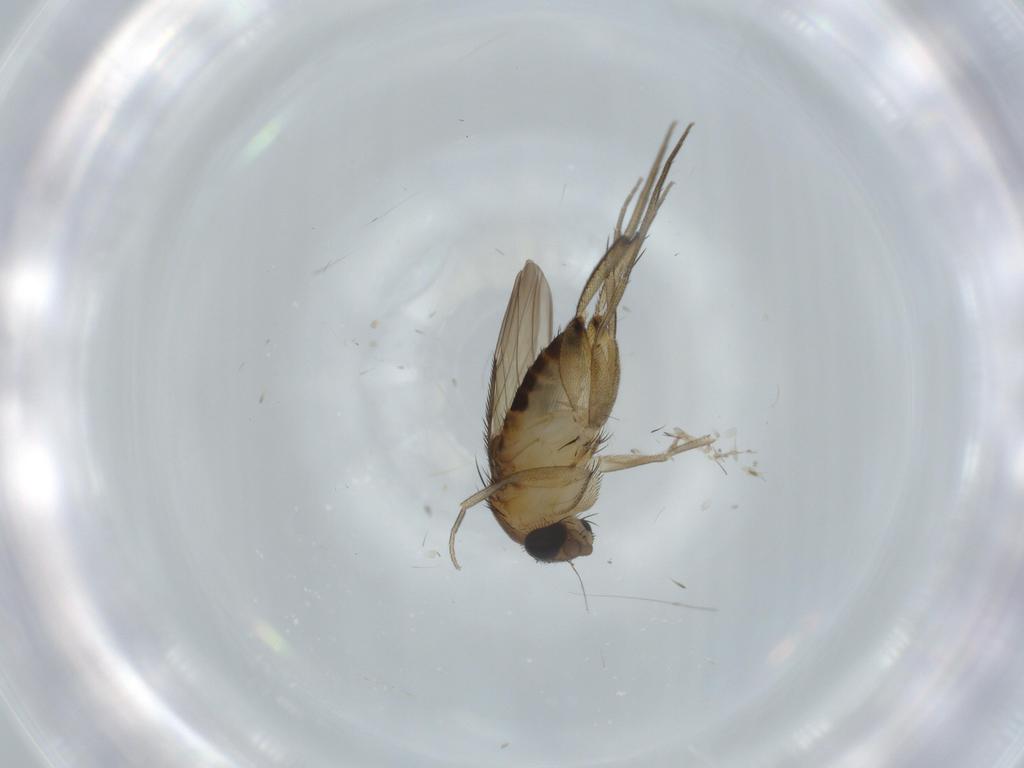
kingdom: Animalia
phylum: Arthropoda
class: Insecta
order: Diptera
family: Phoridae
